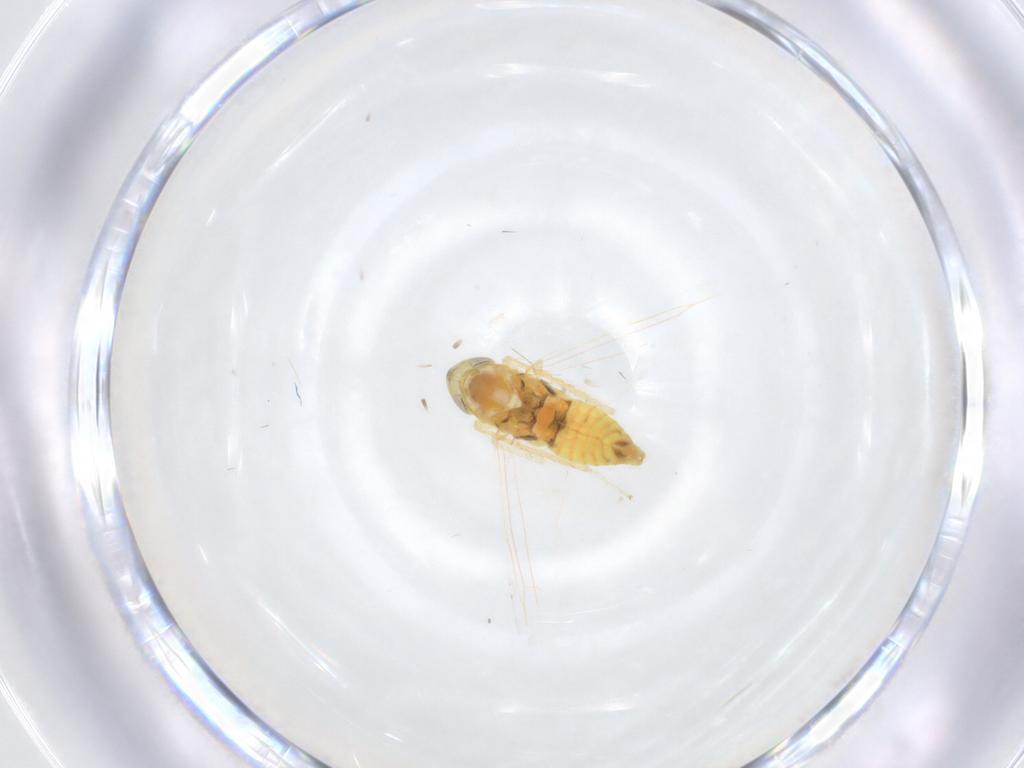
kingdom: Animalia
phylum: Arthropoda
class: Insecta
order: Hemiptera
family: Cicadellidae
